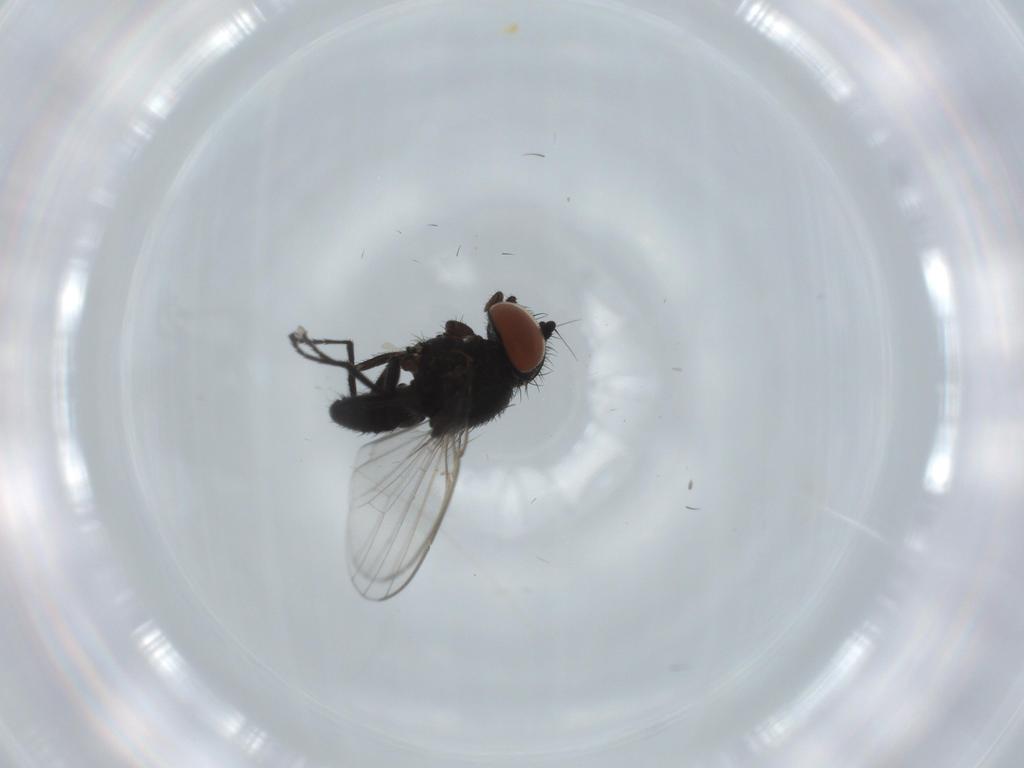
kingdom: Animalia
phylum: Arthropoda
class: Insecta
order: Diptera
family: Milichiidae
